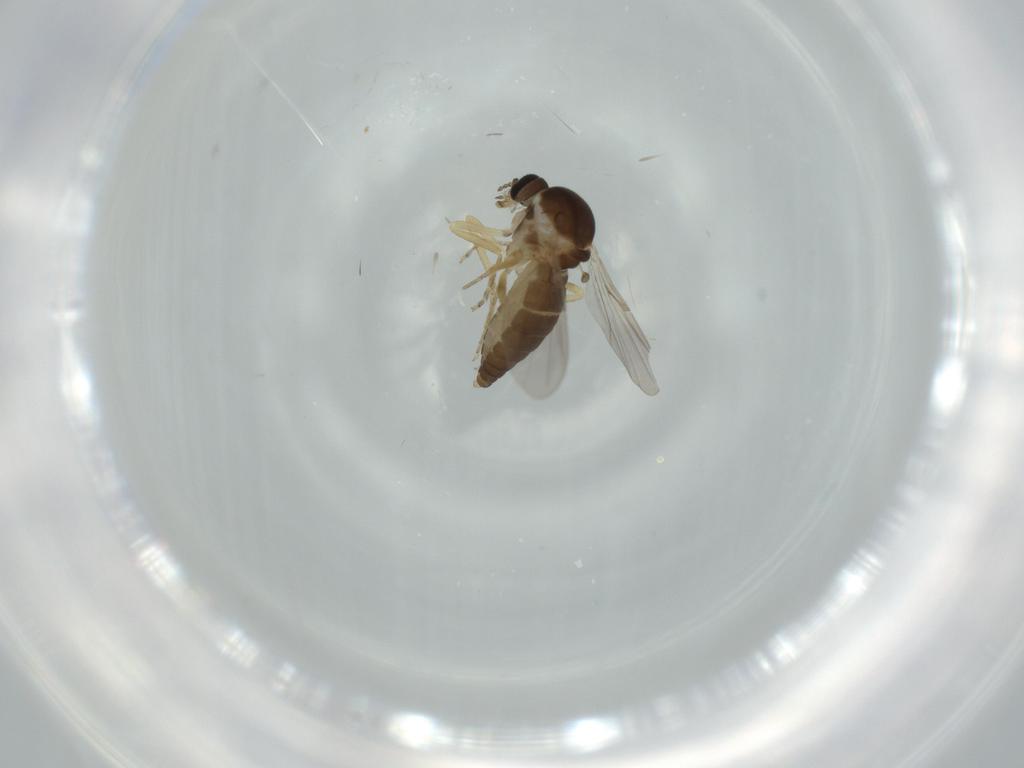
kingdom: Animalia
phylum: Arthropoda
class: Insecta
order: Diptera
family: Ceratopogonidae
